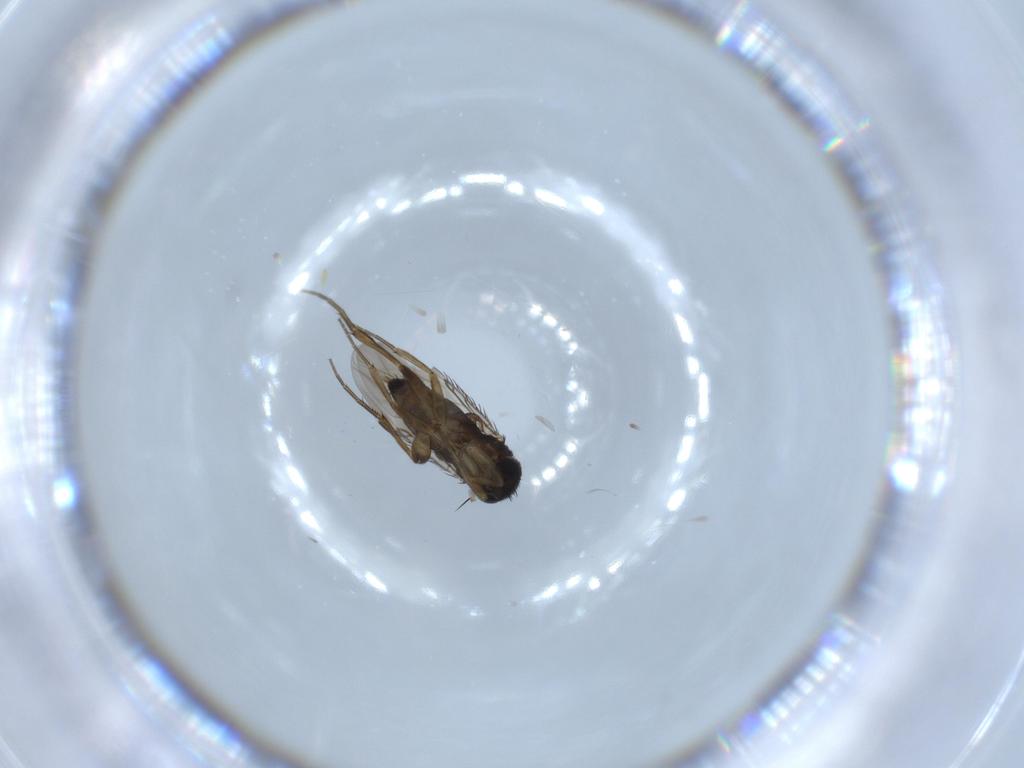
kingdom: Animalia
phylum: Arthropoda
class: Insecta
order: Diptera
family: Phoridae
